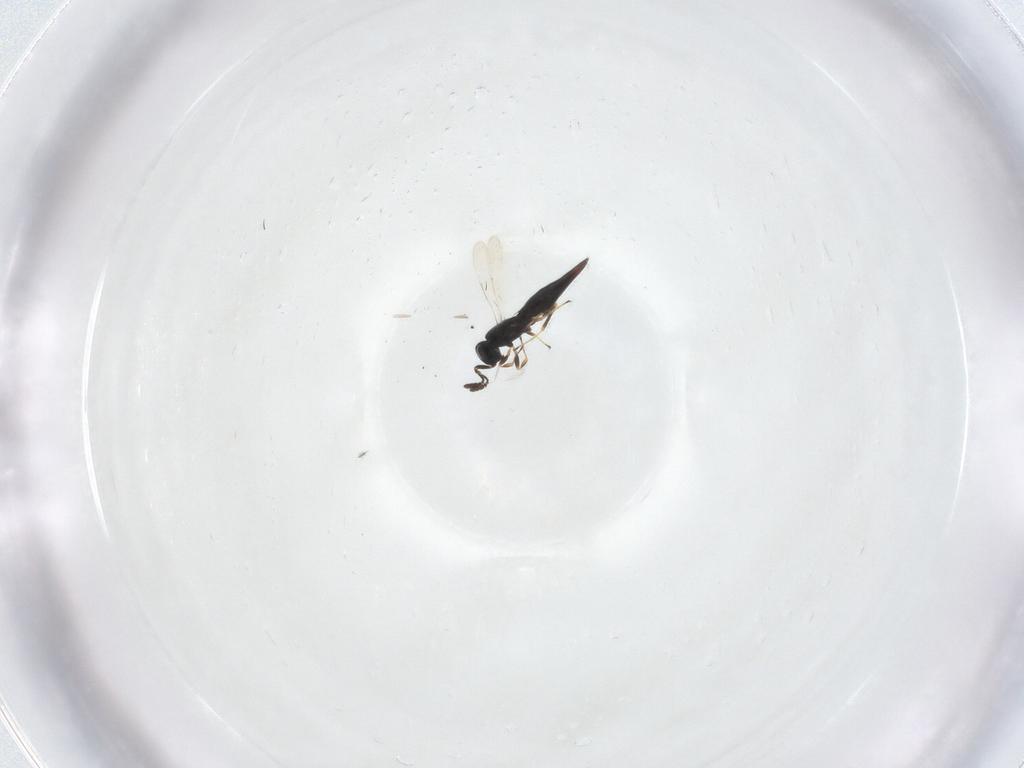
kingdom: Animalia
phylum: Arthropoda
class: Insecta
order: Hymenoptera
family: Scelionidae
